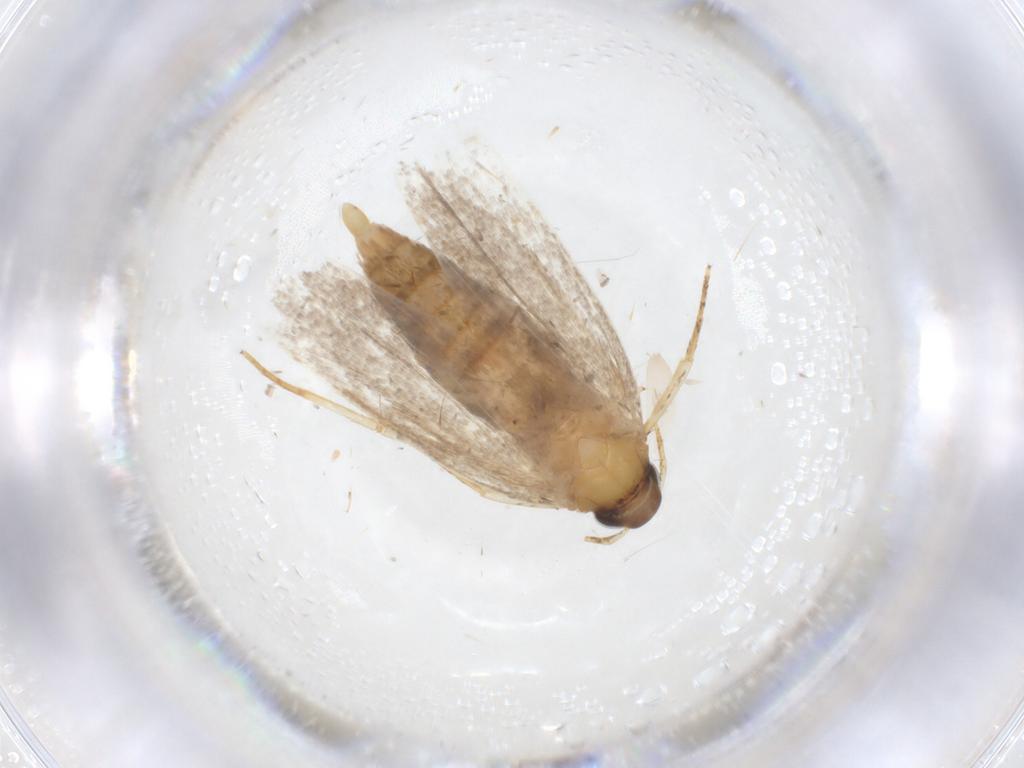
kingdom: Animalia
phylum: Arthropoda
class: Insecta
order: Lepidoptera
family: Oecophoridae
